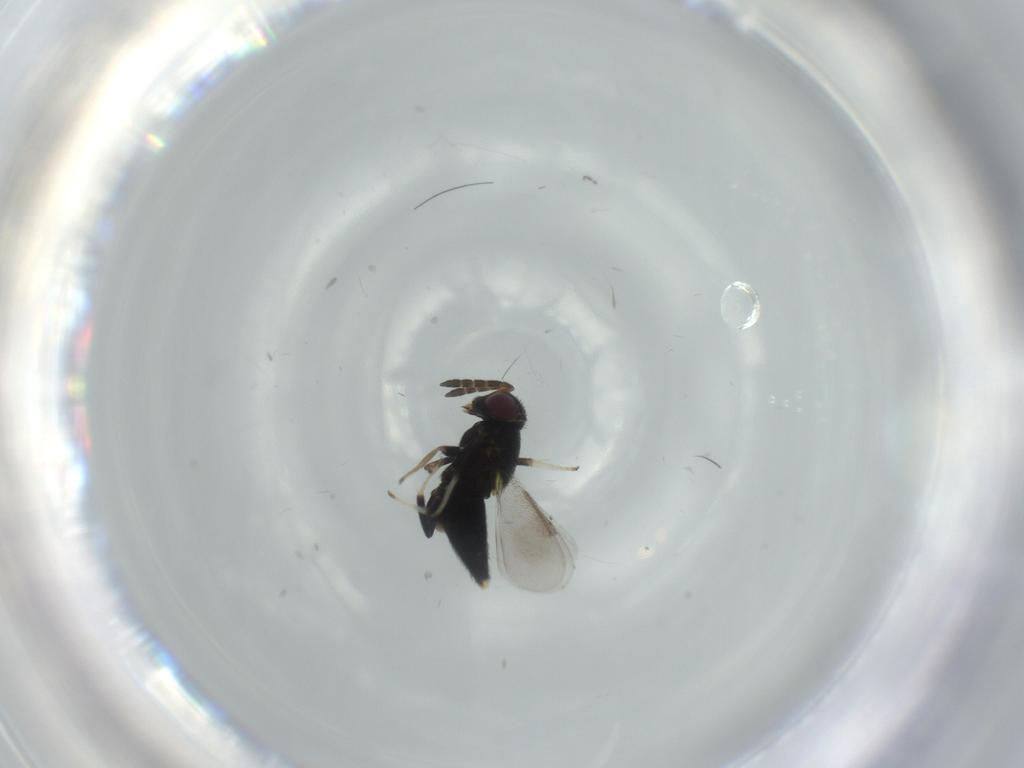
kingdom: Animalia
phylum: Arthropoda
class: Insecta
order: Hymenoptera
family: Aphelinidae
